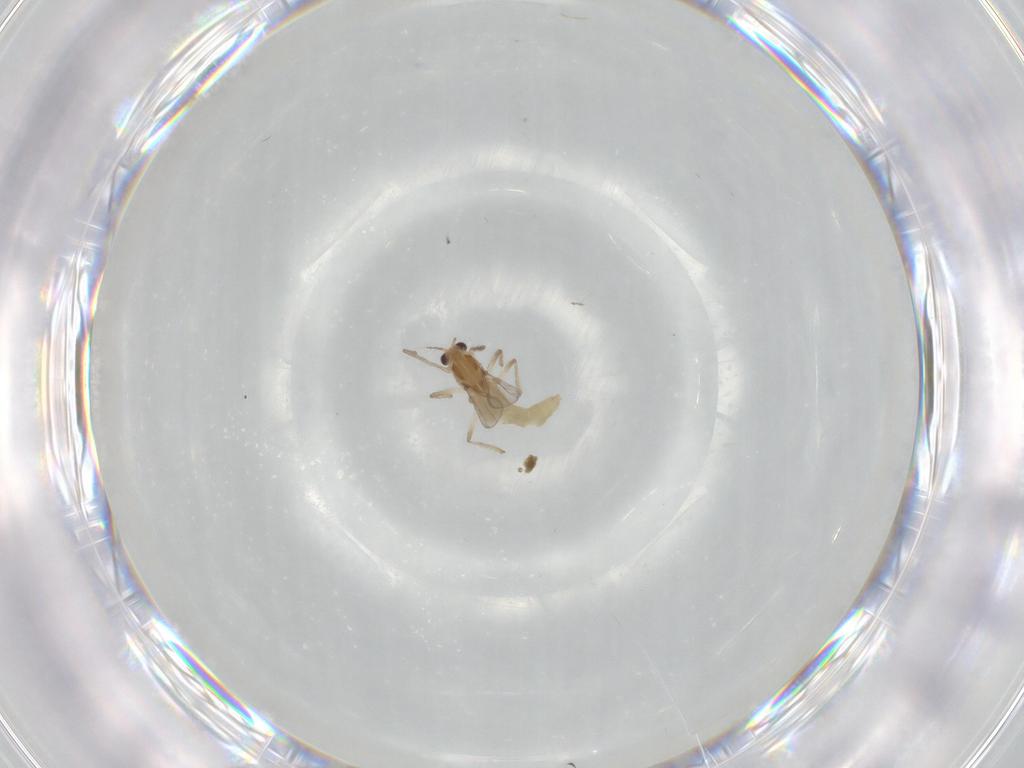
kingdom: Animalia
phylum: Arthropoda
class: Insecta
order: Diptera
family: Chironomidae
